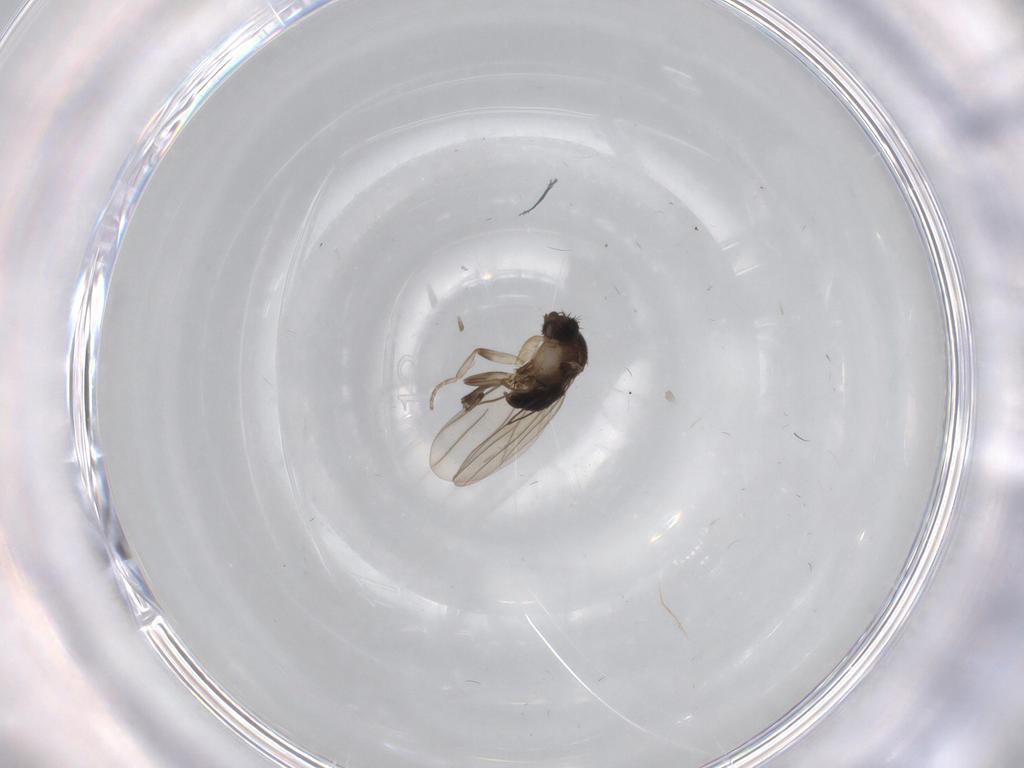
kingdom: Animalia
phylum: Arthropoda
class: Insecta
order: Diptera
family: Phoridae
